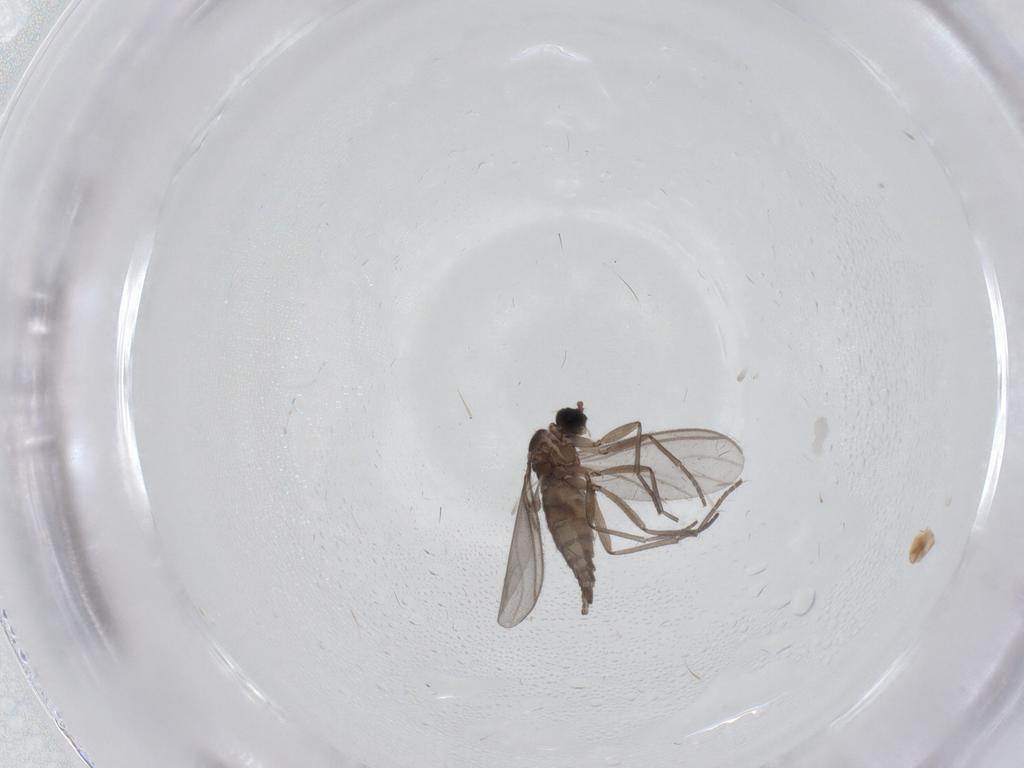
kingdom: Animalia
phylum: Arthropoda
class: Insecta
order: Diptera
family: Sciaridae
